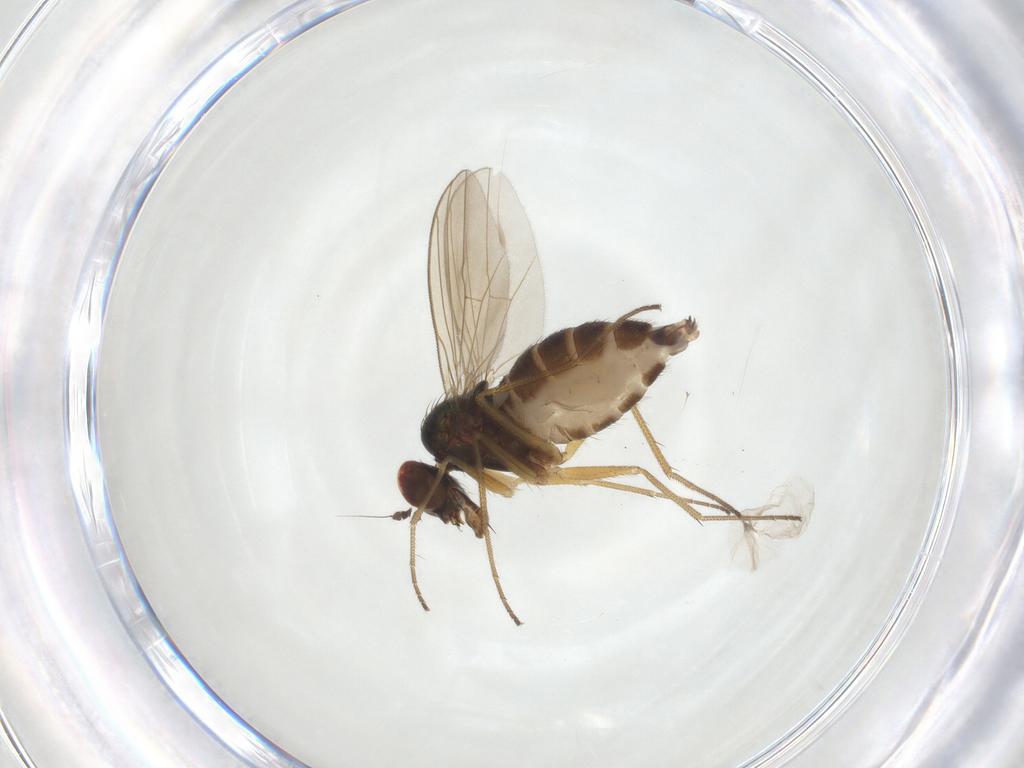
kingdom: Animalia
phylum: Arthropoda
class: Insecta
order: Diptera
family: Dolichopodidae
